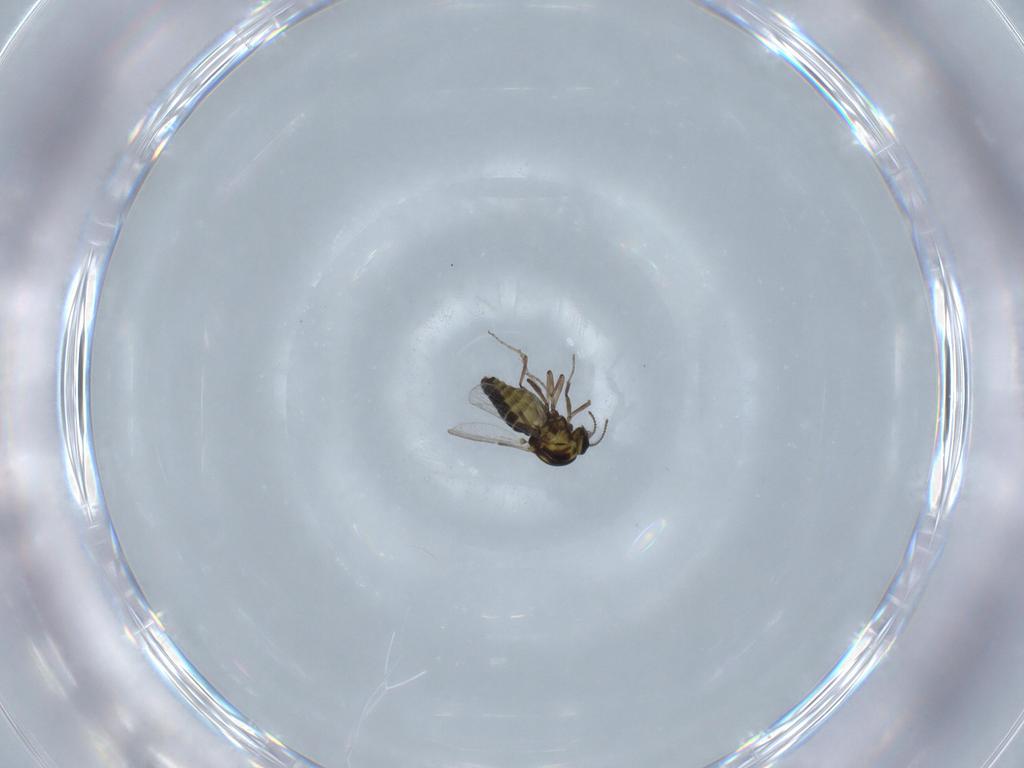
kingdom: Animalia
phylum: Arthropoda
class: Insecta
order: Diptera
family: Ceratopogonidae
